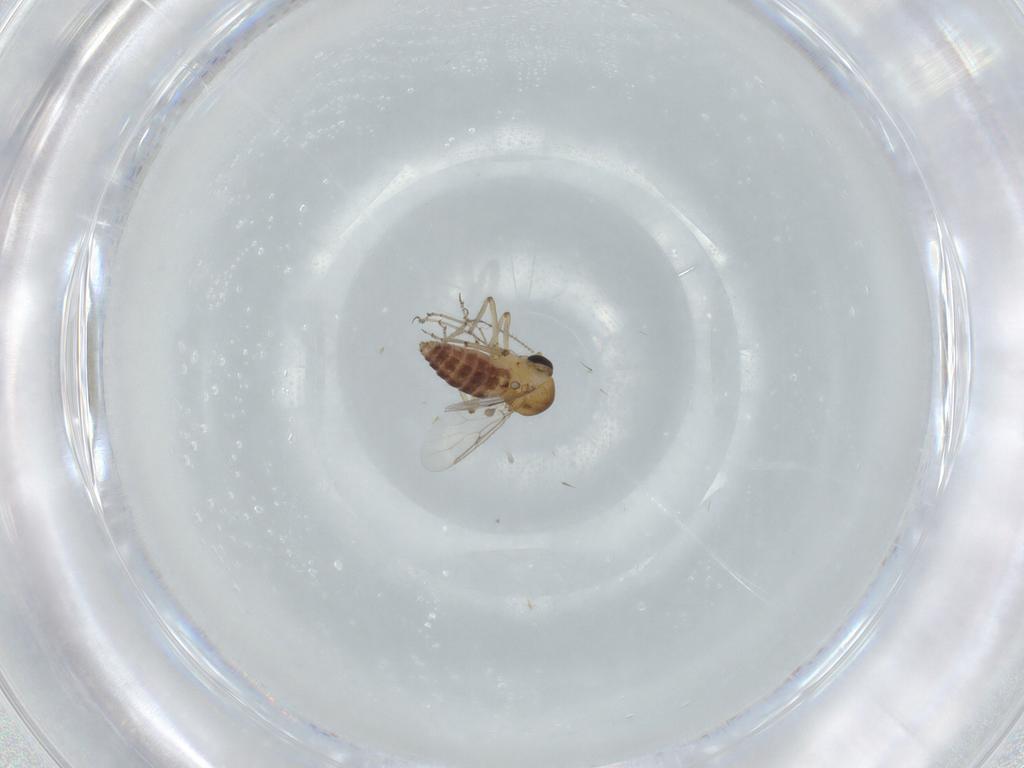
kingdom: Animalia
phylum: Arthropoda
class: Insecta
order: Diptera
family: Ceratopogonidae
